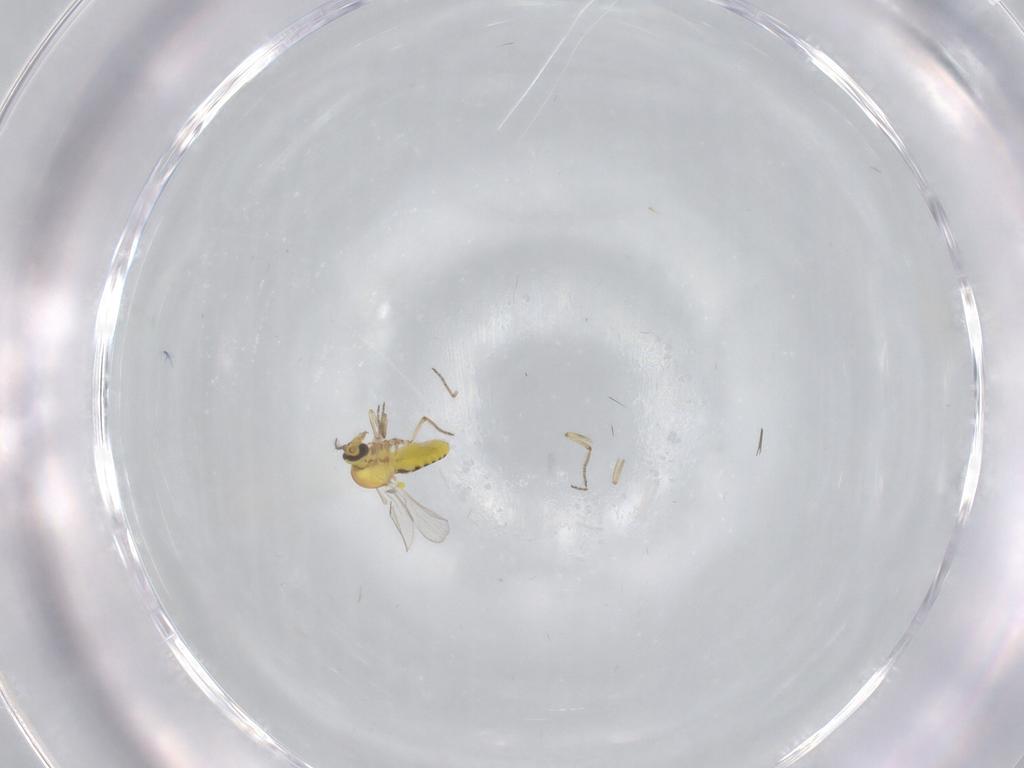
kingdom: Animalia
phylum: Arthropoda
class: Insecta
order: Diptera
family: Ceratopogonidae
